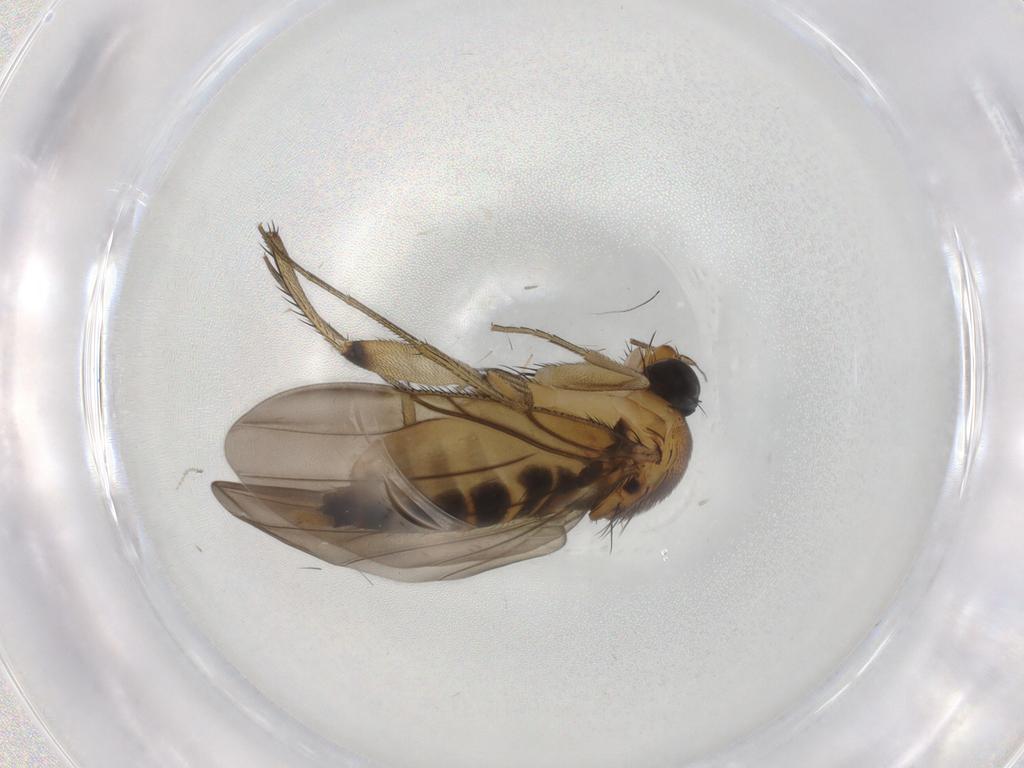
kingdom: Animalia
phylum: Arthropoda
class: Insecta
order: Diptera
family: Phoridae
